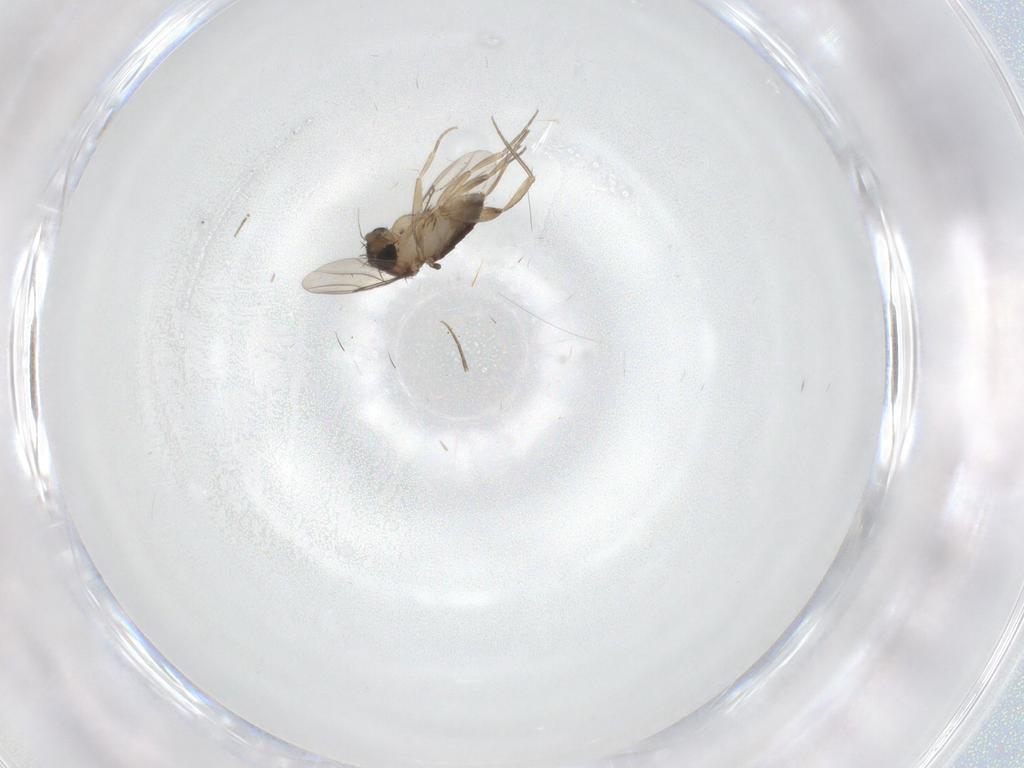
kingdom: Animalia
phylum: Arthropoda
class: Insecta
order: Diptera
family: Phoridae
